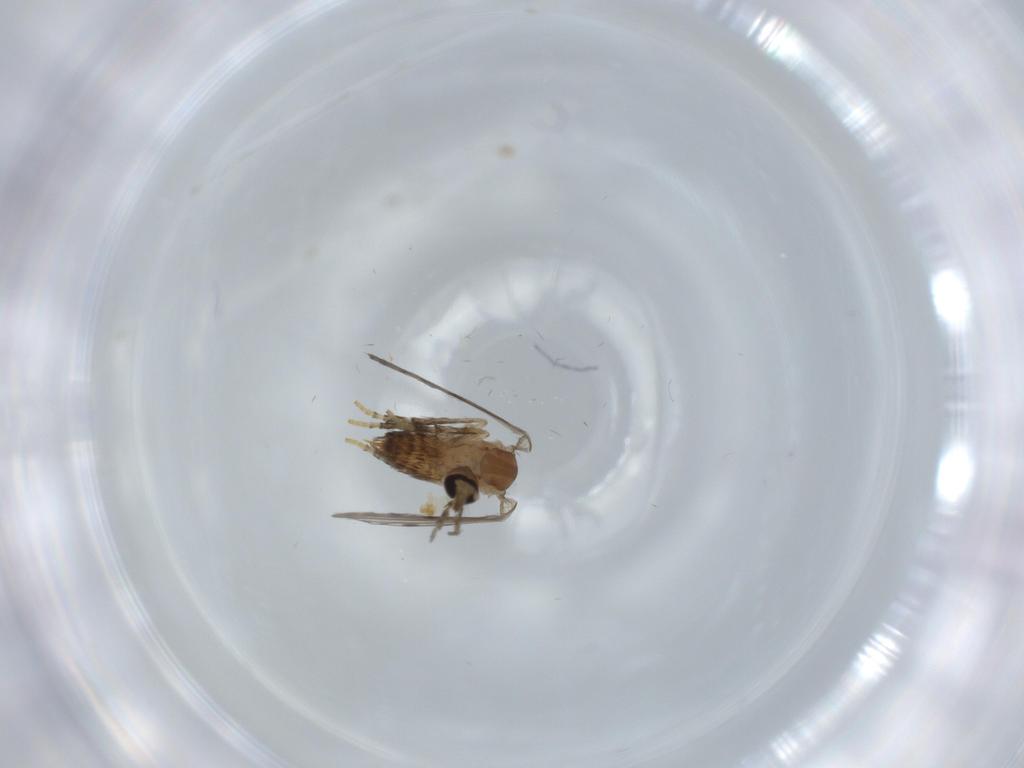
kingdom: Animalia
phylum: Arthropoda
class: Insecta
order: Diptera
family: Psychodidae
